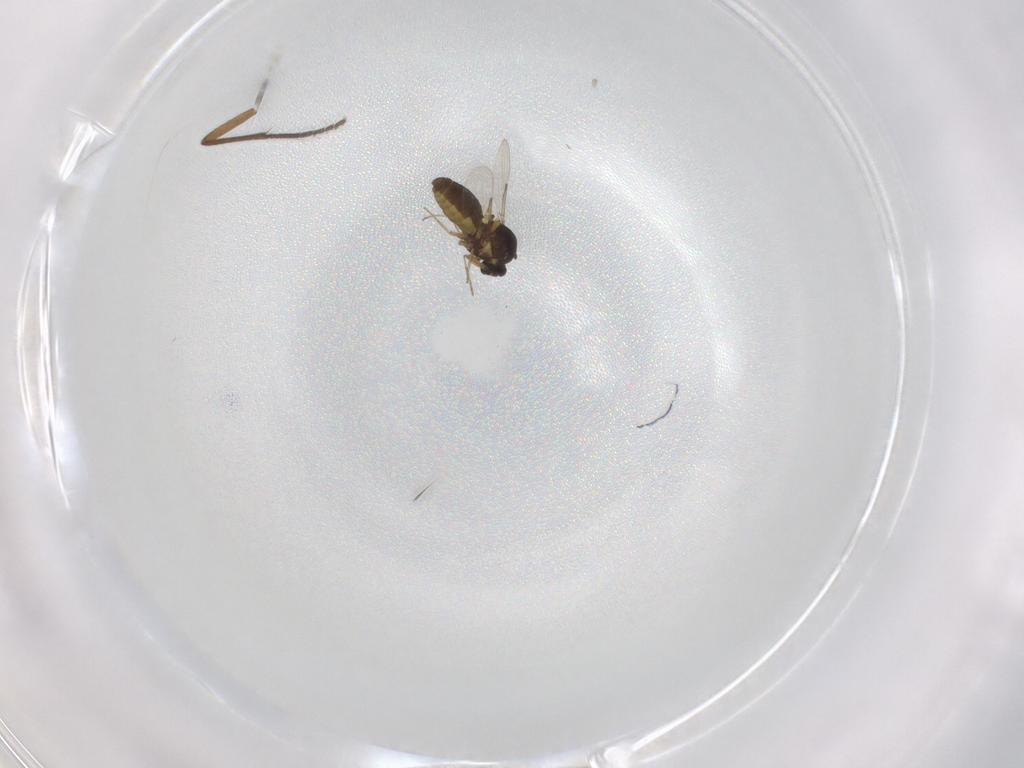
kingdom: Animalia
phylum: Arthropoda
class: Insecta
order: Diptera
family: Ceratopogonidae
